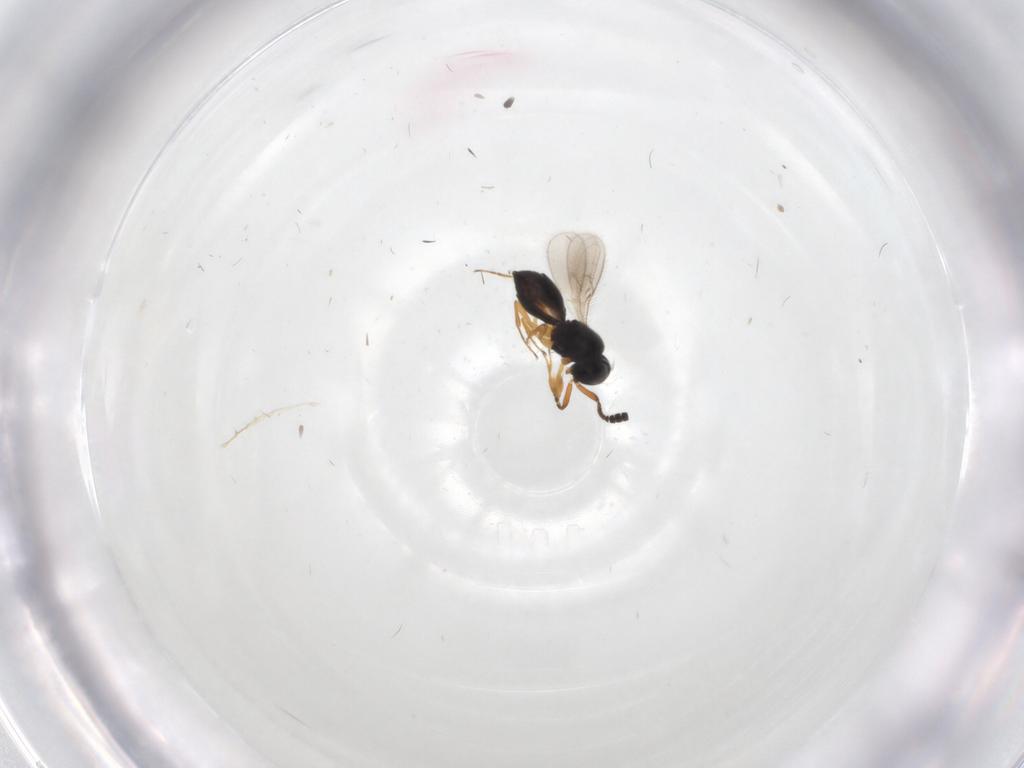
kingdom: Animalia
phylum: Arthropoda
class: Insecta
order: Hymenoptera
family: Scelionidae
